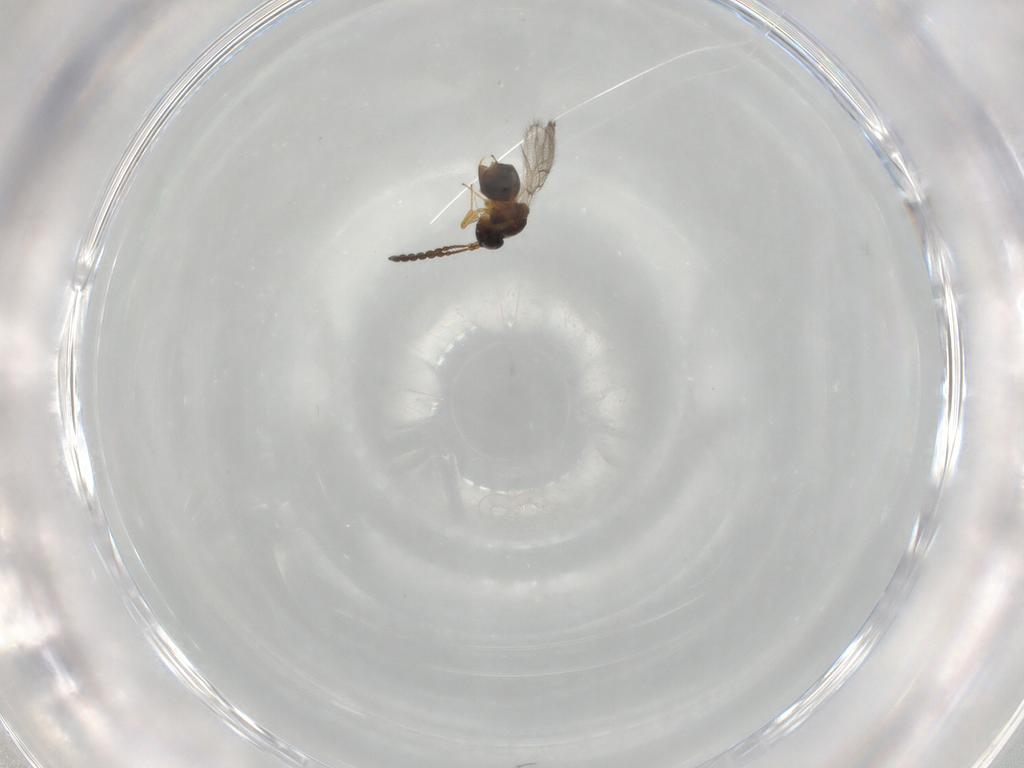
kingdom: Animalia
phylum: Arthropoda
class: Insecta
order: Hymenoptera
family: Figitidae
